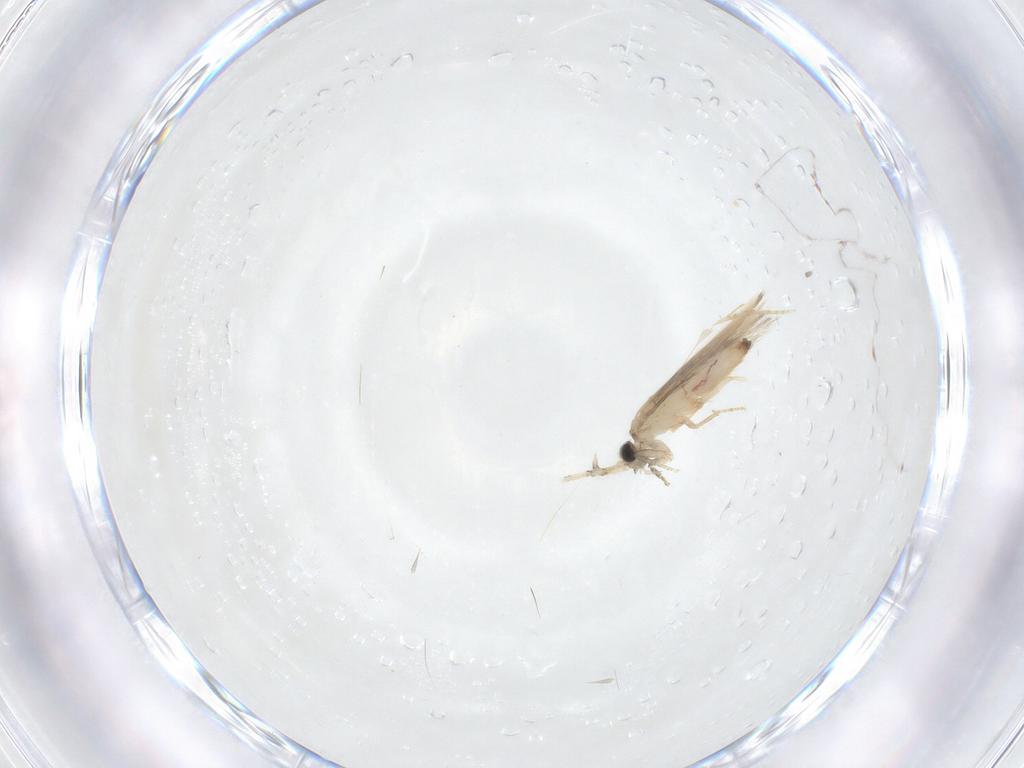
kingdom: Animalia
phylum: Arthropoda
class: Insecta
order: Trichoptera
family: Hydroptilidae
